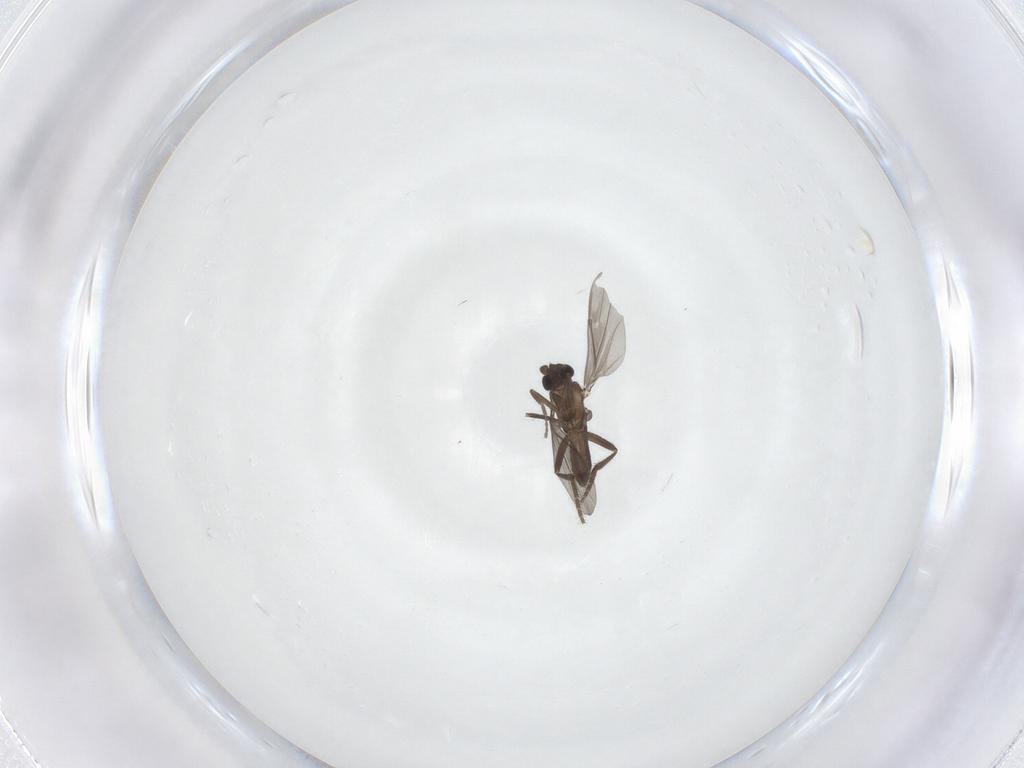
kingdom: Animalia
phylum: Arthropoda
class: Insecta
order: Diptera
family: Phoridae
